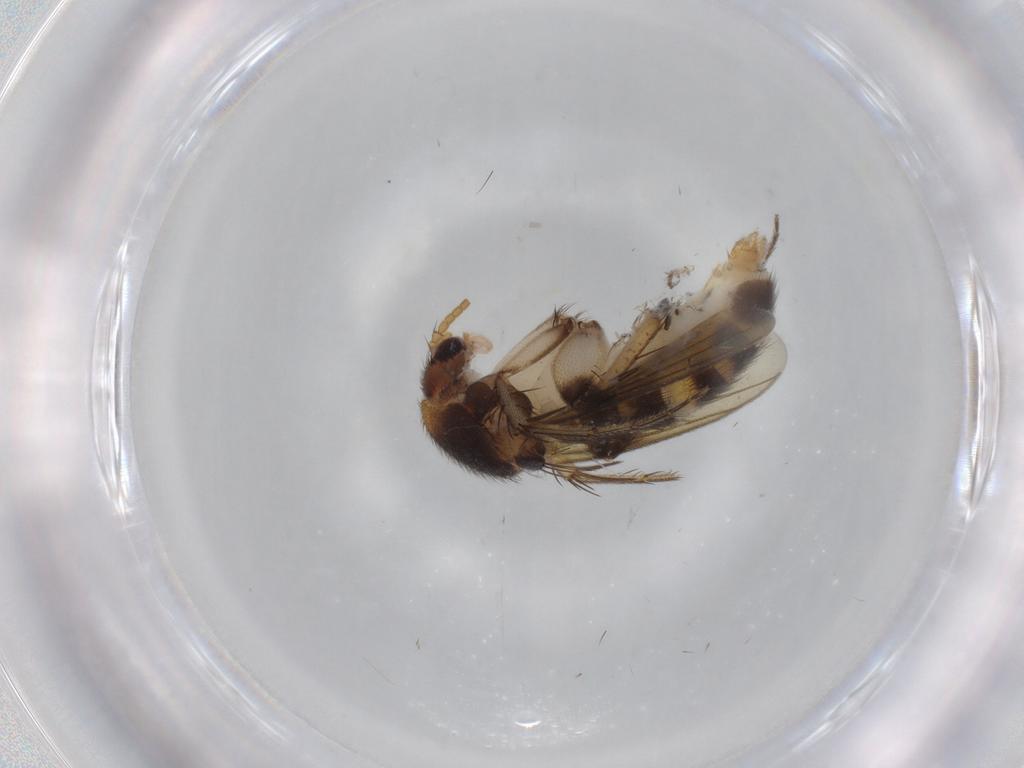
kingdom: Animalia
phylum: Arthropoda
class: Insecta
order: Diptera
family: Mycetophilidae
